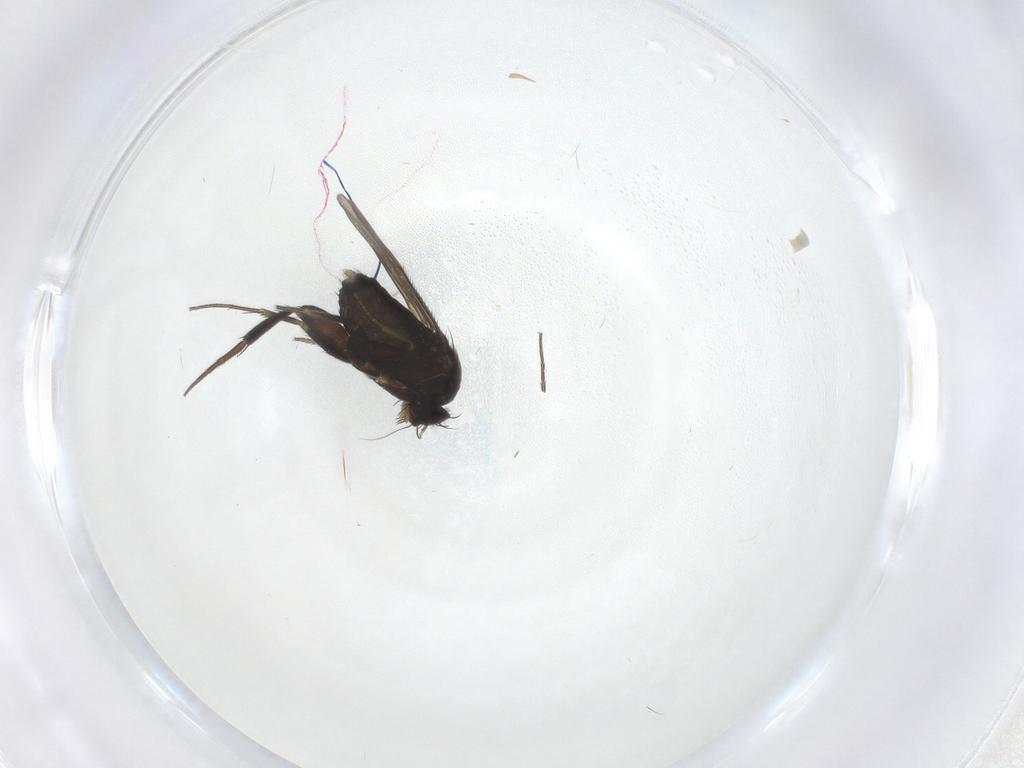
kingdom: Animalia
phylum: Arthropoda
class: Insecta
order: Diptera
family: Phoridae
